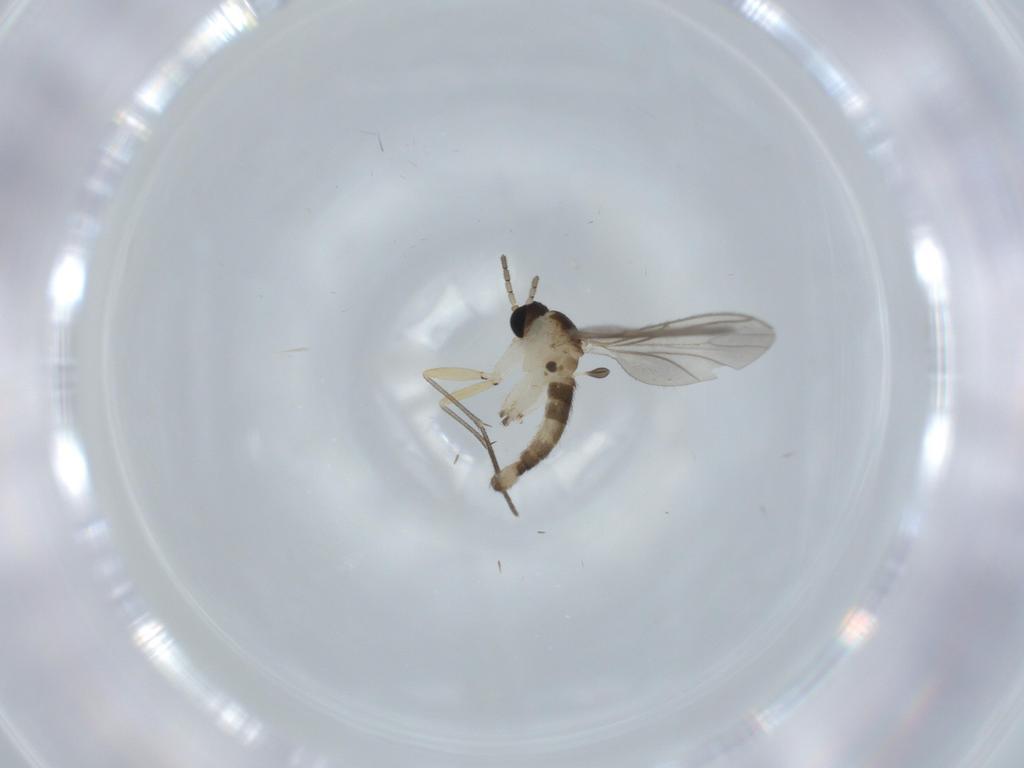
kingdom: Animalia
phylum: Arthropoda
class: Insecta
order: Diptera
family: Sciaridae
